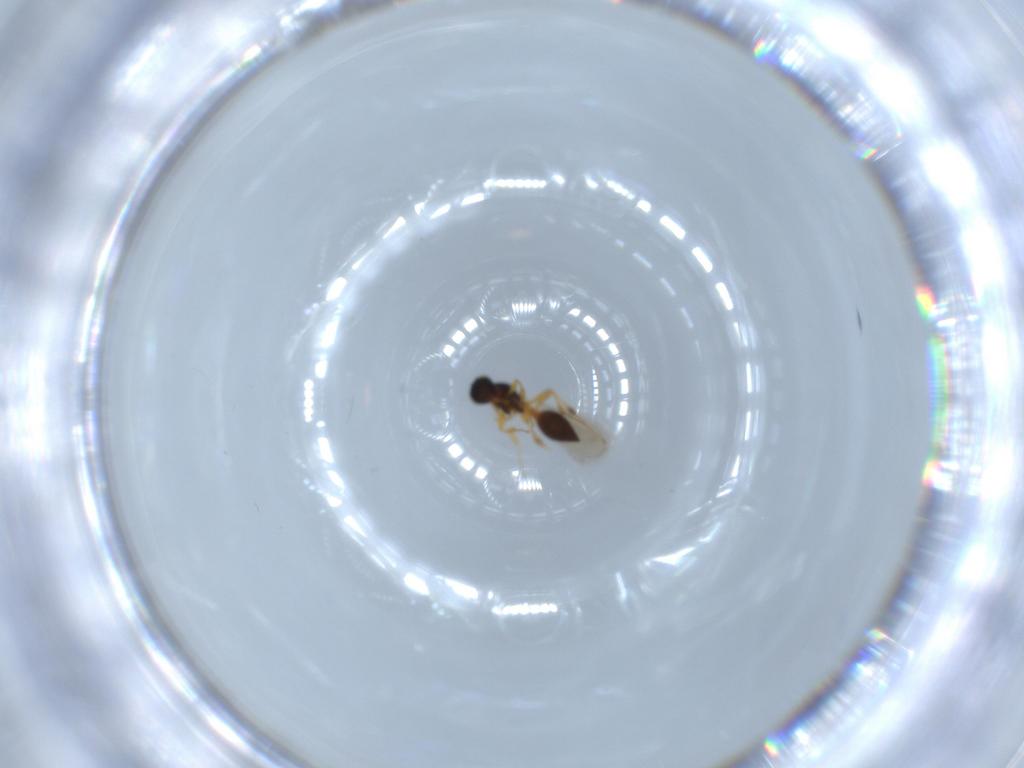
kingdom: Animalia
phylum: Arthropoda
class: Insecta
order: Hymenoptera
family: Platygastridae
